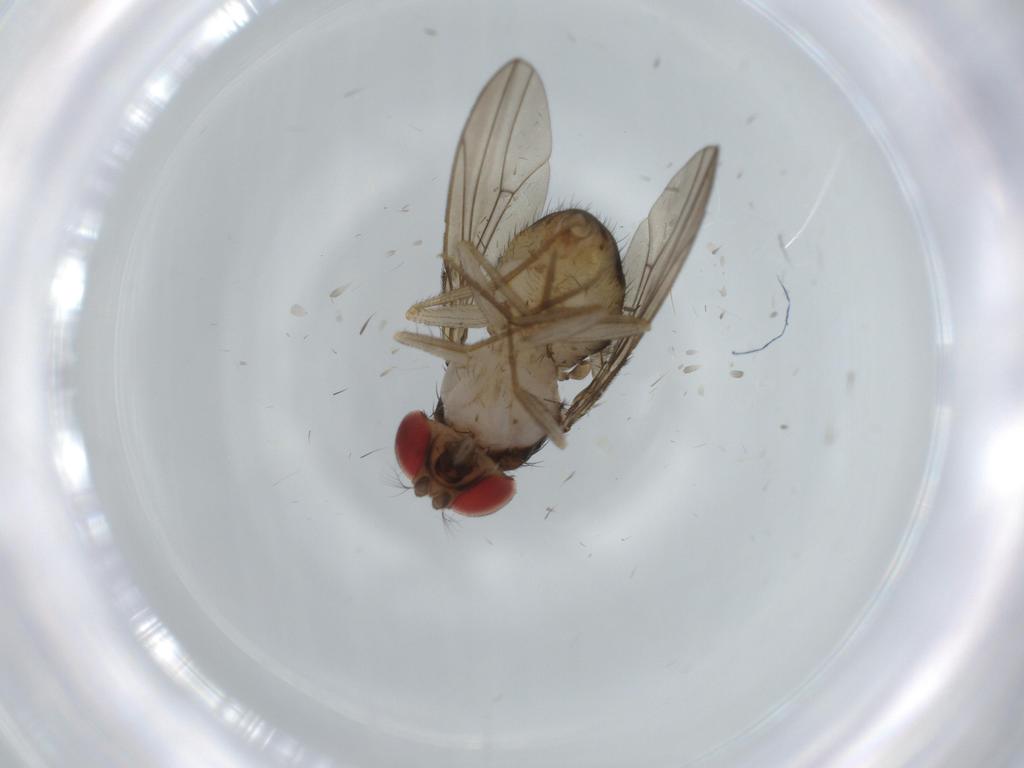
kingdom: Animalia
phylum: Arthropoda
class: Insecta
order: Diptera
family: Drosophilidae
